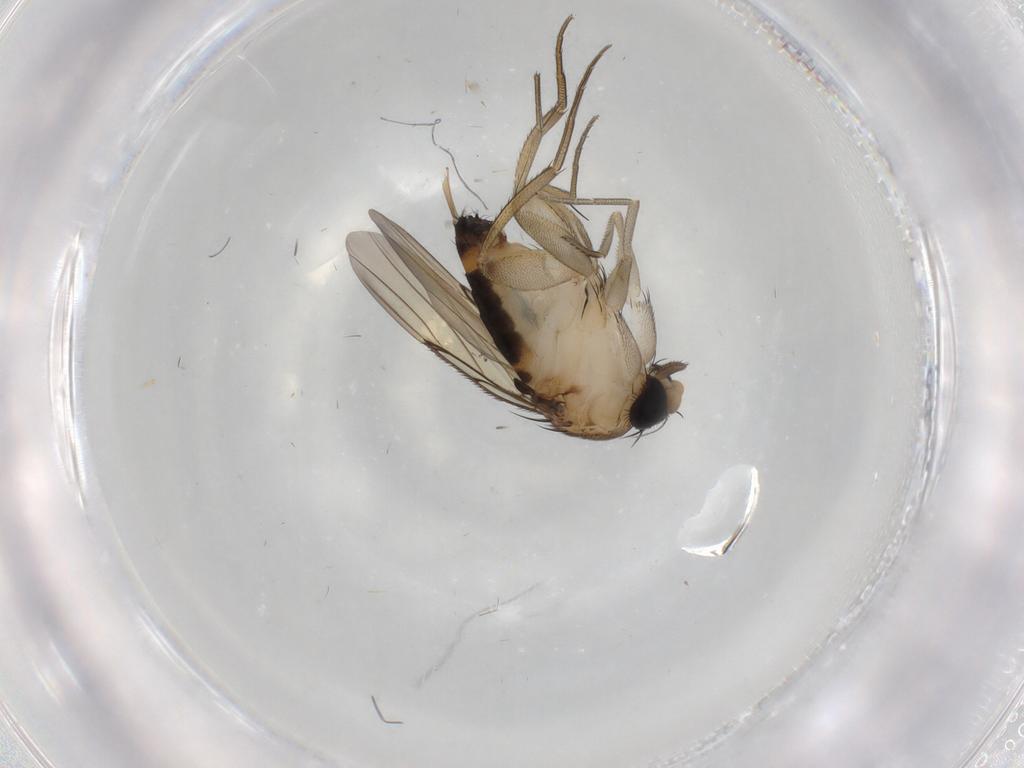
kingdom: Animalia
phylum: Arthropoda
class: Insecta
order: Diptera
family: Phoridae
